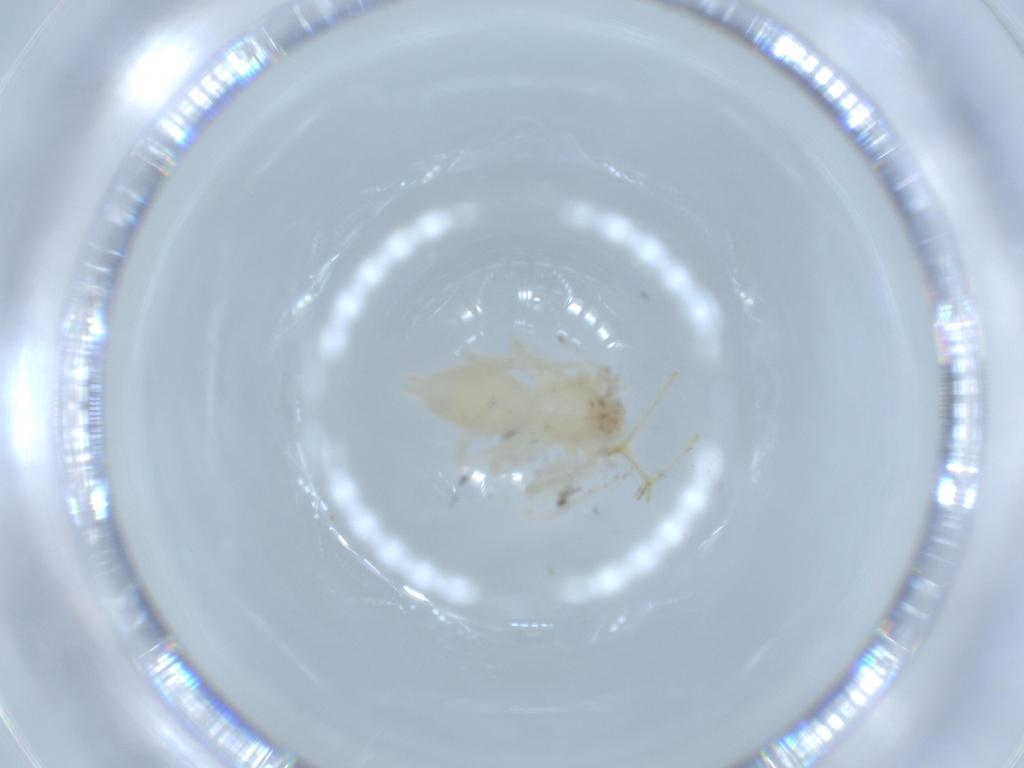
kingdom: Animalia
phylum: Arthropoda
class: Arachnida
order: Araneae
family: Anyphaenidae
